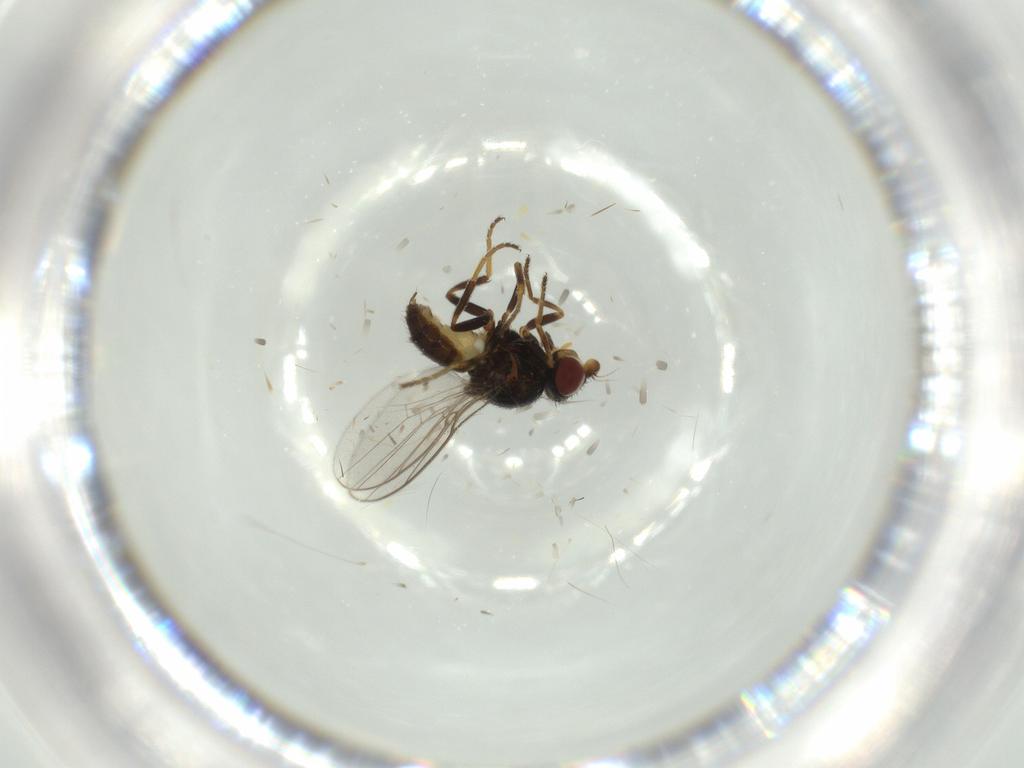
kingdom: Animalia
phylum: Arthropoda
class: Insecta
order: Diptera
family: Chloropidae
